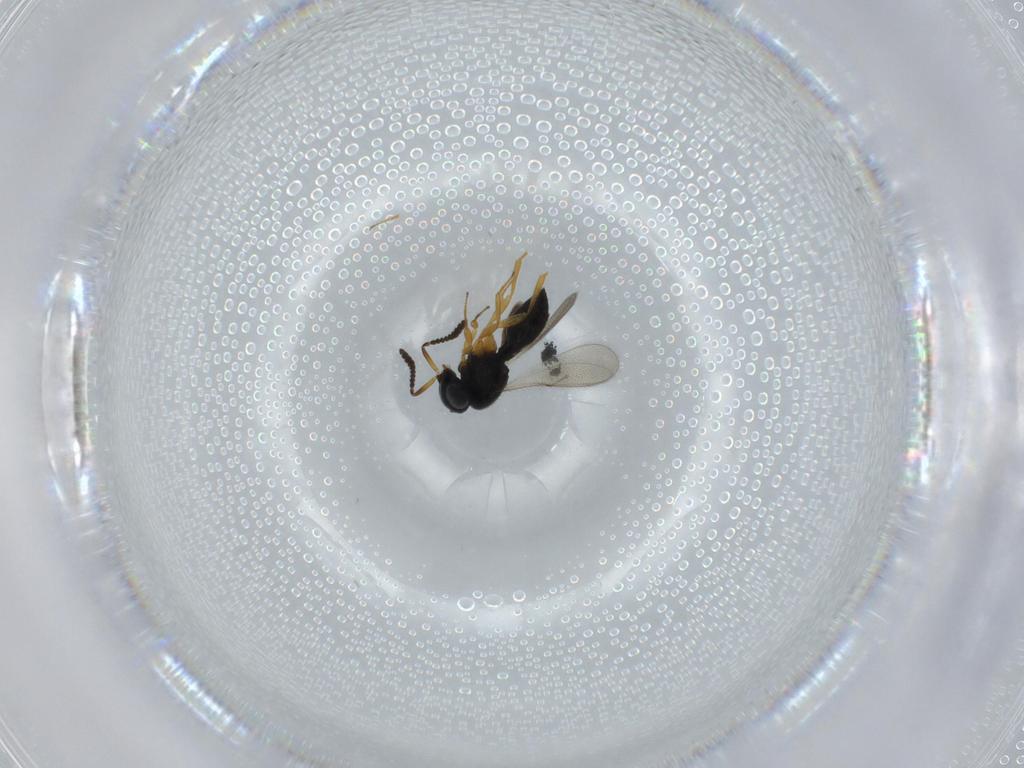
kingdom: Animalia
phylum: Arthropoda
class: Insecta
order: Hymenoptera
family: Scelionidae
